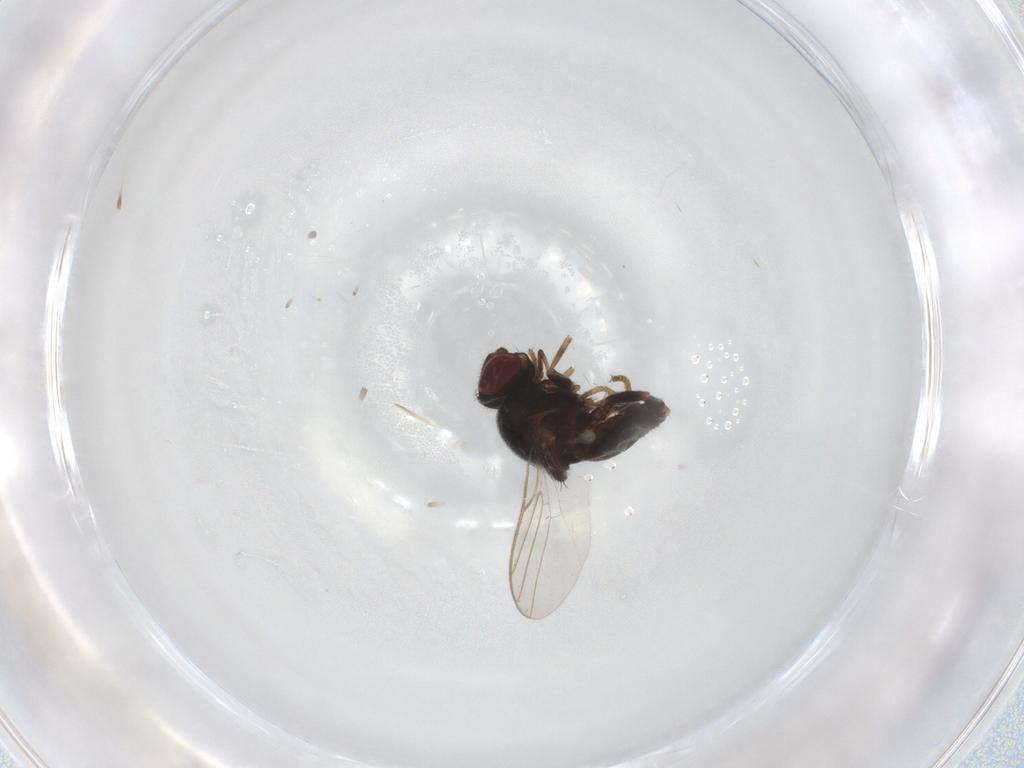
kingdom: Animalia
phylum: Arthropoda
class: Insecta
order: Diptera
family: Chloropidae
